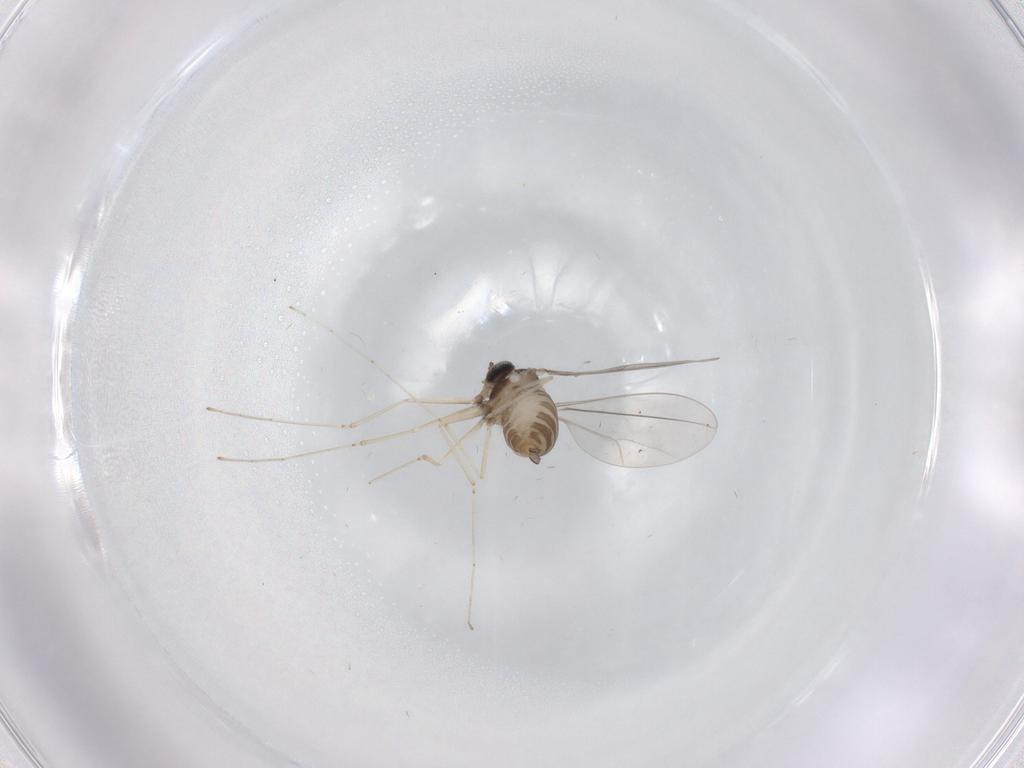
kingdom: Animalia
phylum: Arthropoda
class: Insecta
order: Diptera
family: Cecidomyiidae
